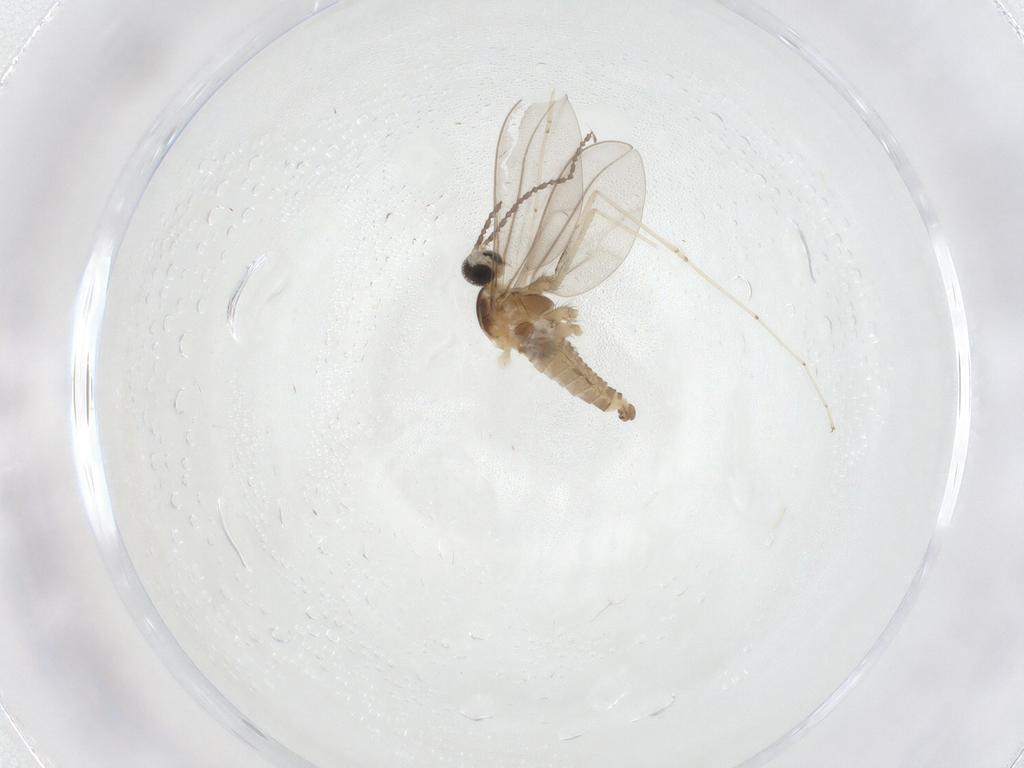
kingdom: Animalia
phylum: Arthropoda
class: Insecta
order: Diptera
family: Cecidomyiidae
